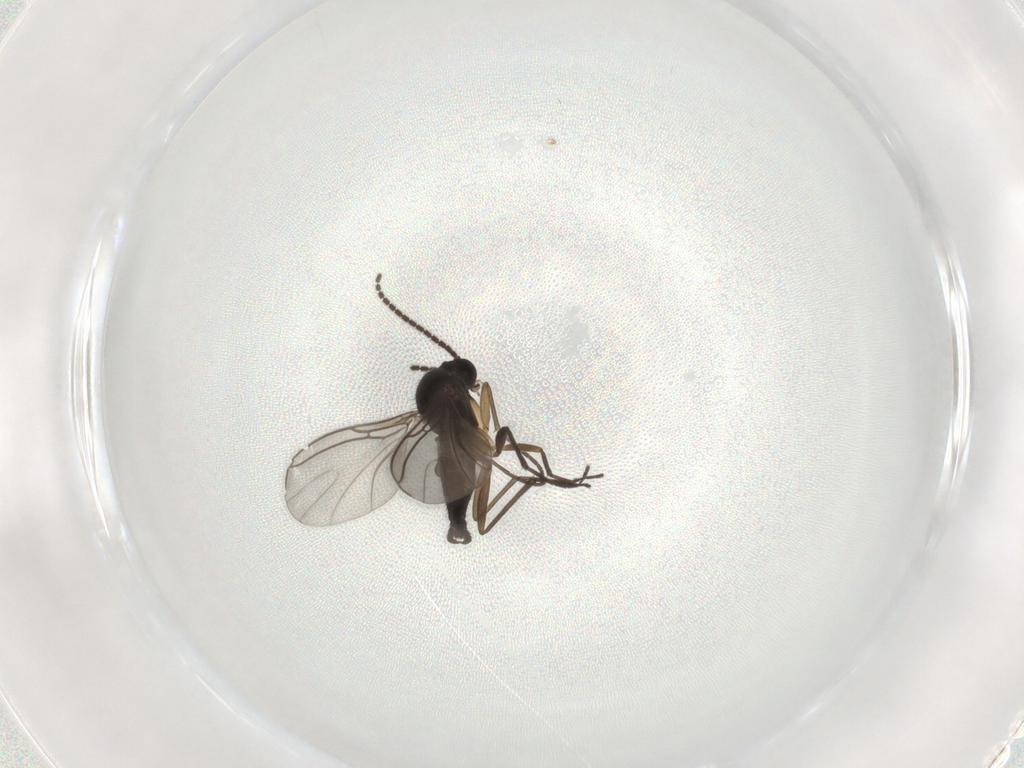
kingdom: Animalia
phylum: Arthropoda
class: Insecta
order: Diptera
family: Sciaridae
